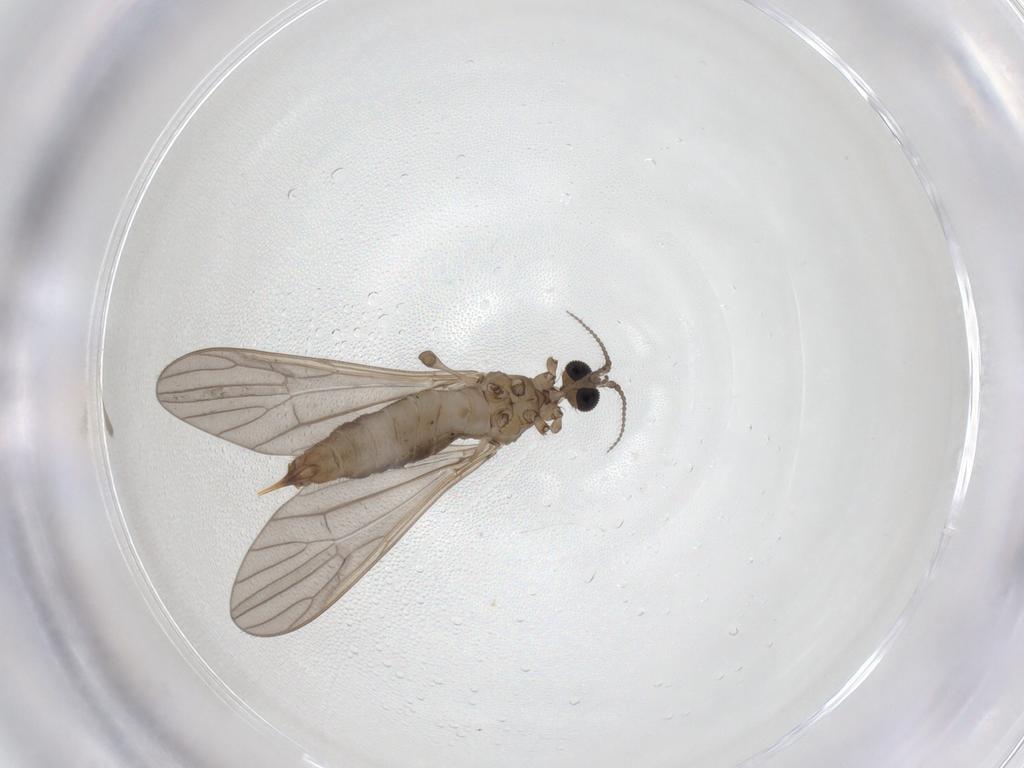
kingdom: Animalia
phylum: Arthropoda
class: Insecta
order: Diptera
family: Limoniidae
